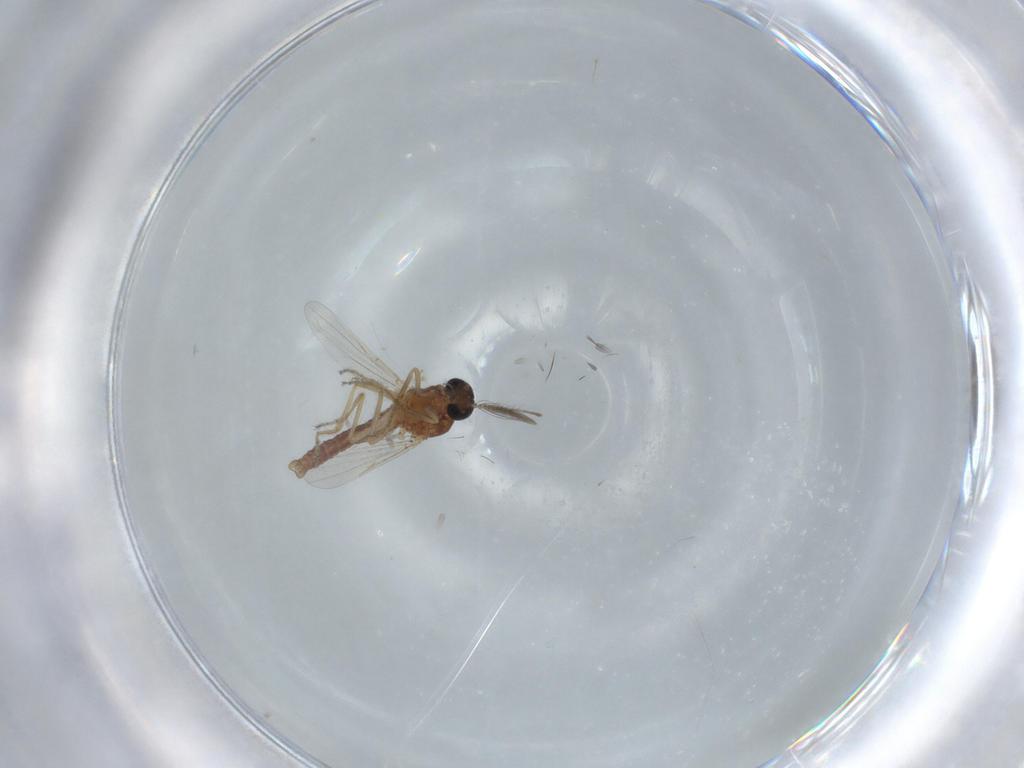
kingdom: Animalia
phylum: Arthropoda
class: Insecta
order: Diptera
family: Ceratopogonidae
